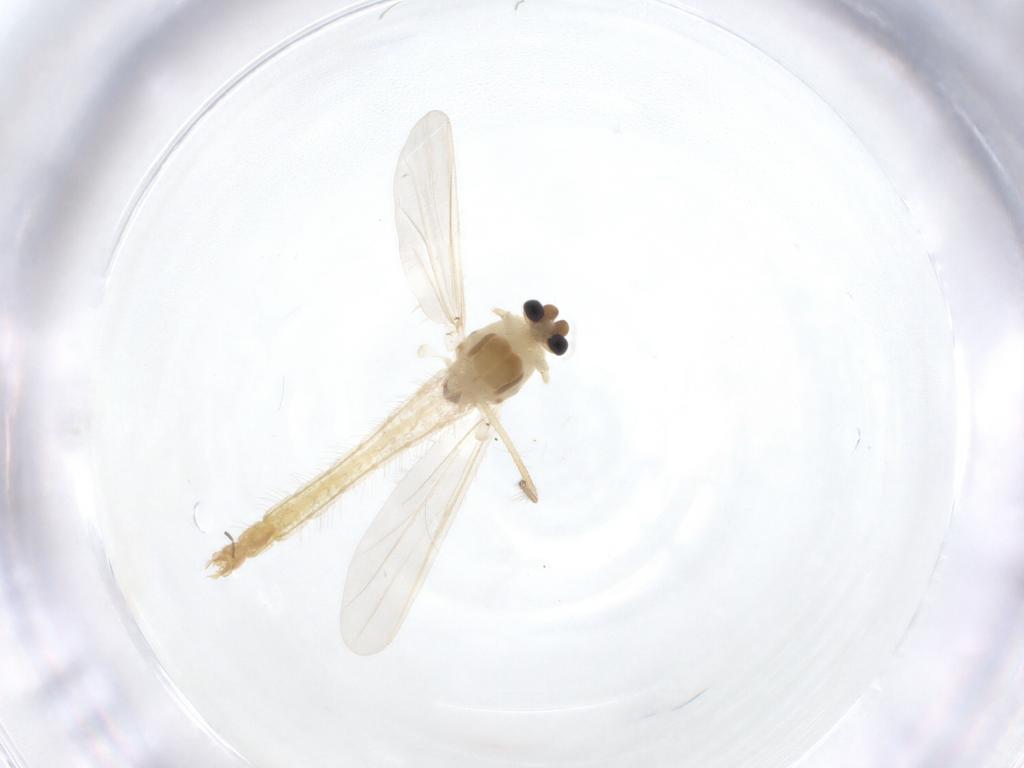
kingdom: Animalia
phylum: Arthropoda
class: Insecta
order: Diptera
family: Chironomidae
